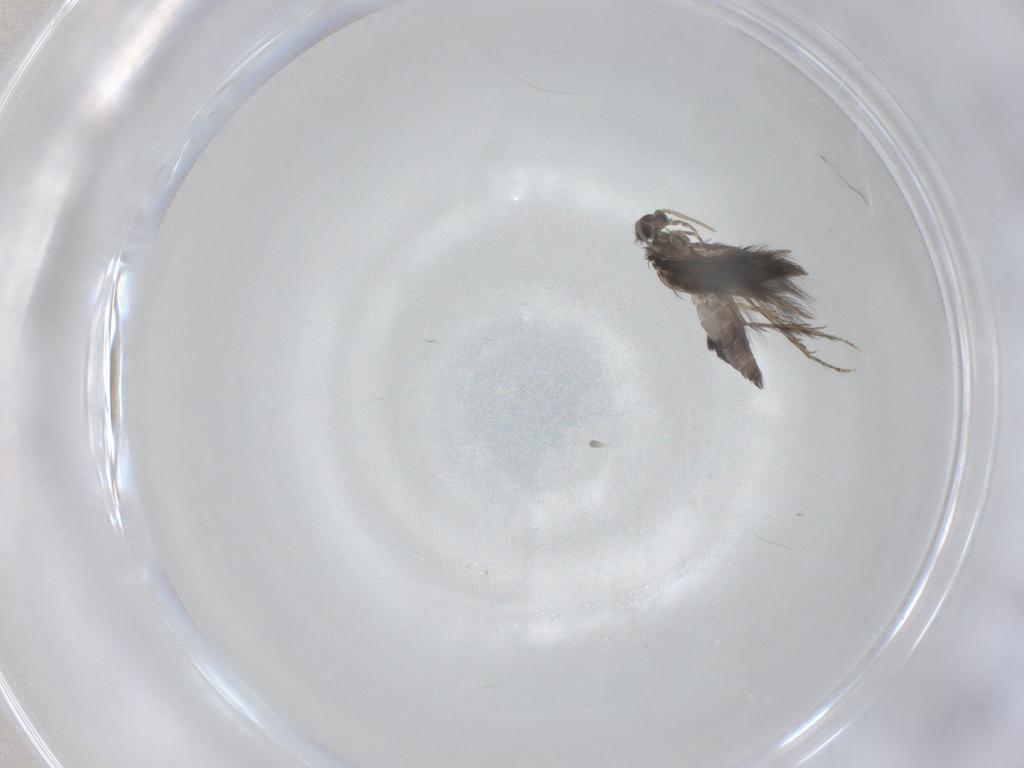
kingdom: Animalia
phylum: Arthropoda
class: Insecta
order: Trichoptera
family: Hydroptilidae
